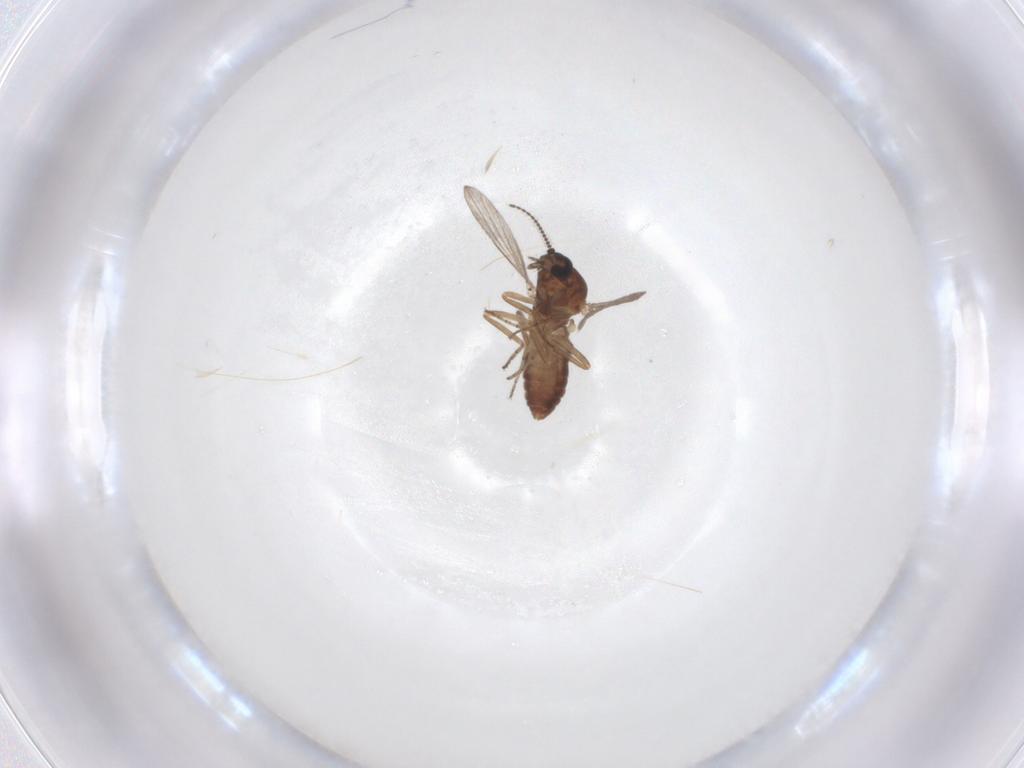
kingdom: Animalia
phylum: Arthropoda
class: Insecta
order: Diptera
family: Ceratopogonidae
